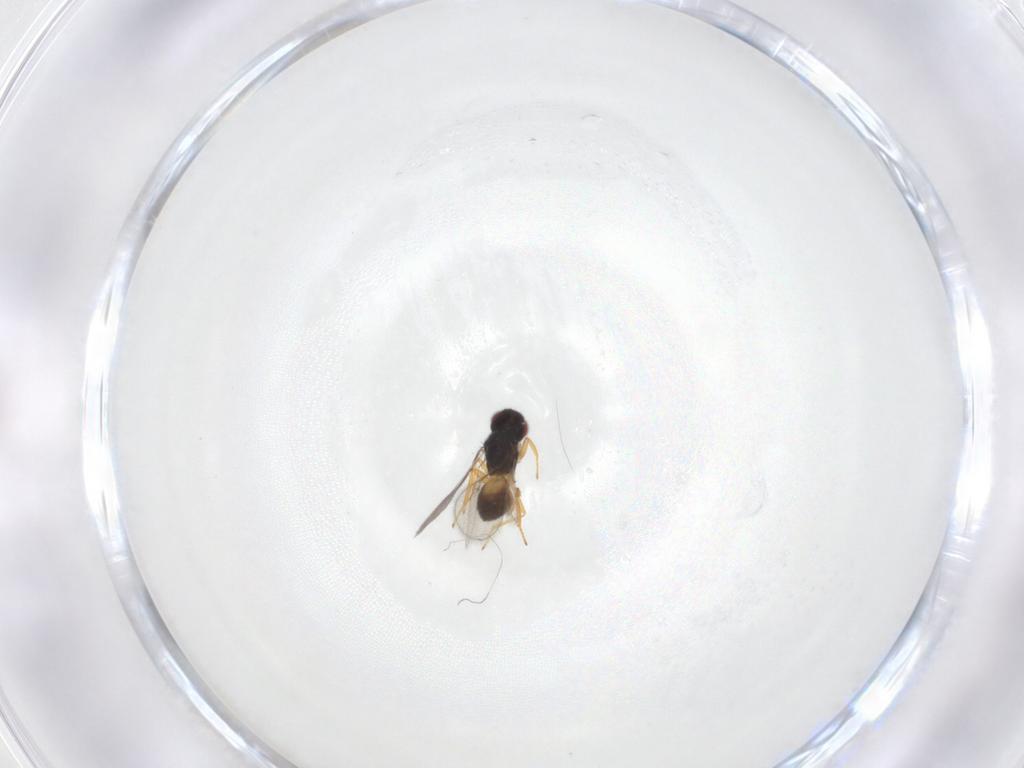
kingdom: Animalia
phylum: Arthropoda
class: Insecta
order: Hymenoptera
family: Eulophidae
